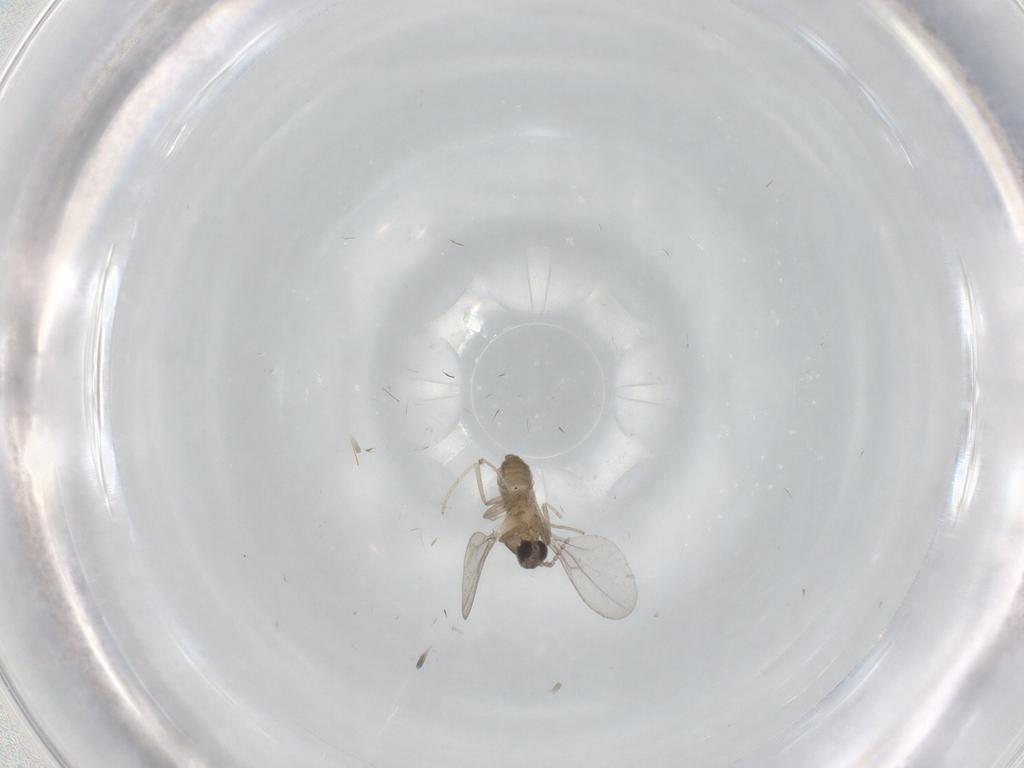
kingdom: Animalia
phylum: Arthropoda
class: Insecta
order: Diptera
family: Cecidomyiidae
